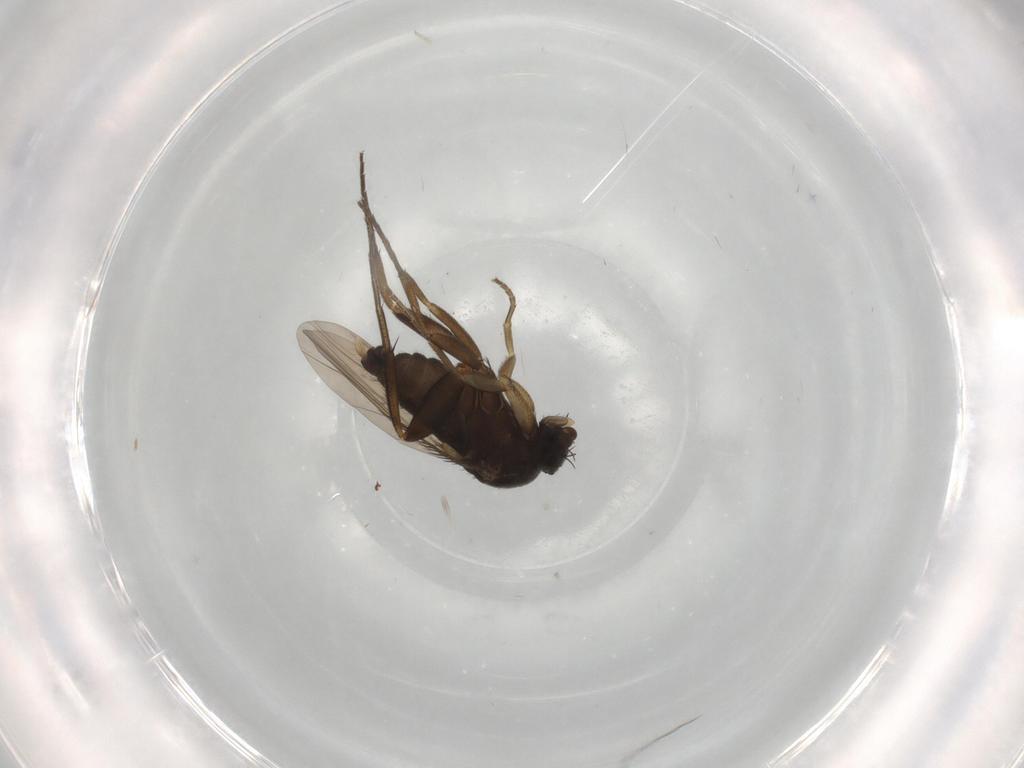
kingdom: Animalia
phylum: Arthropoda
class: Insecta
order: Diptera
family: Phoridae
